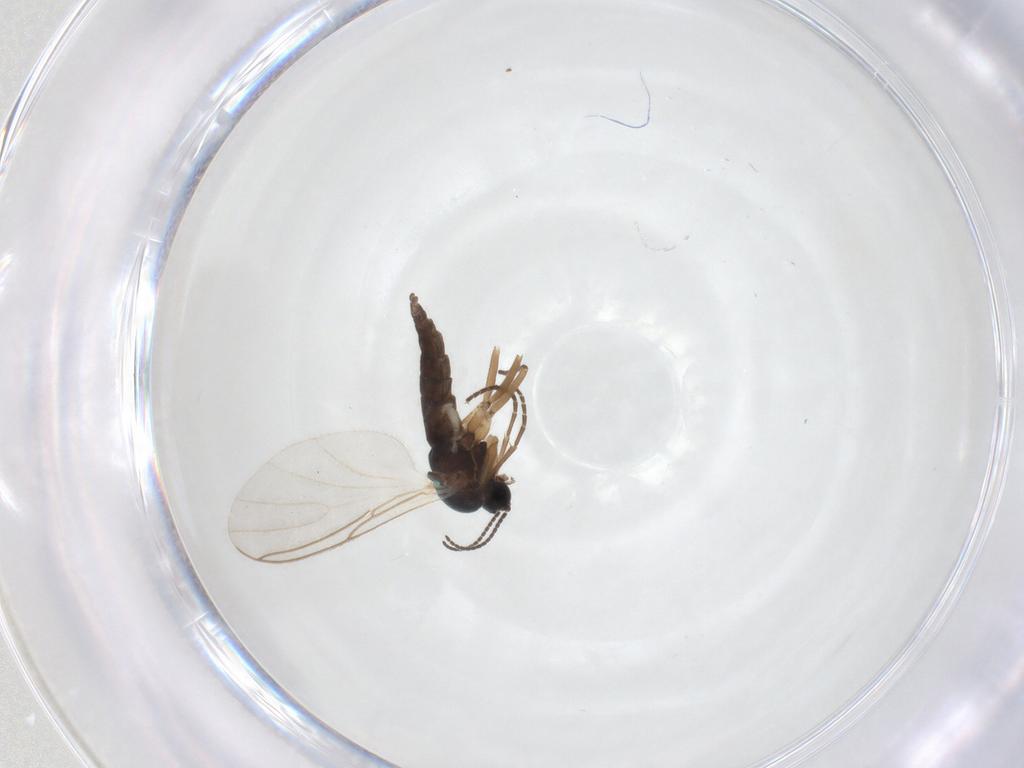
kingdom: Animalia
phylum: Arthropoda
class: Insecta
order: Diptera
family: Sciaridae
